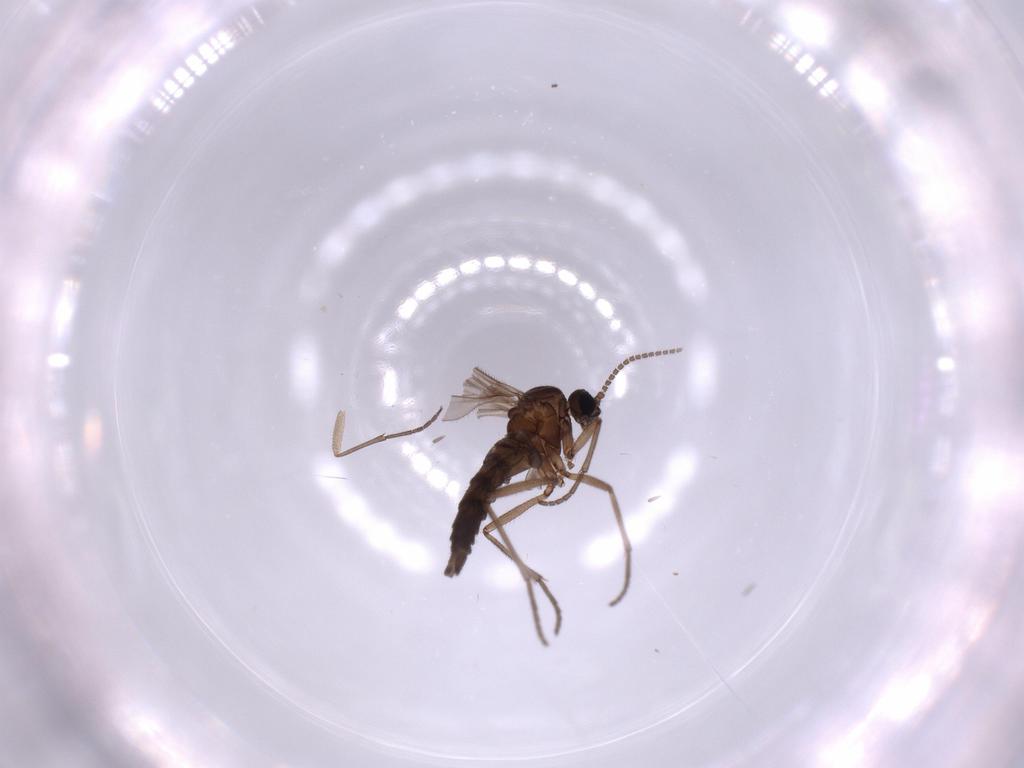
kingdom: Animalia
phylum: Arthropoda
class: Insecta
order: Diptera
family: Sciaridae
